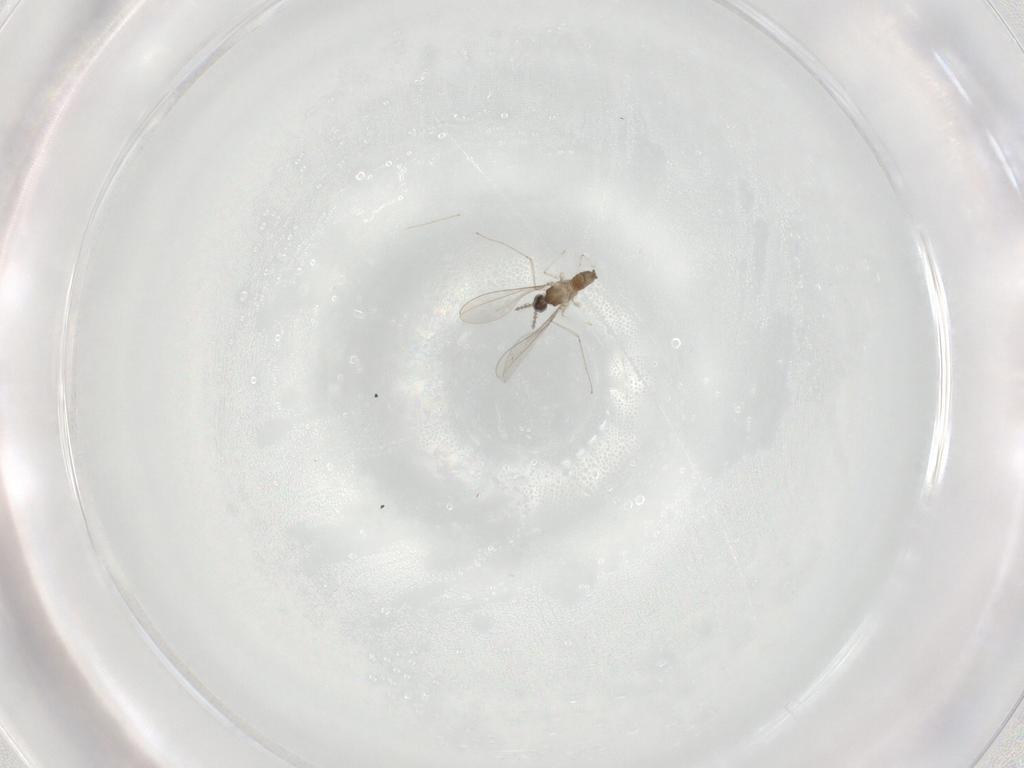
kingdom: Animalia
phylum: Arthropoda
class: Insecta
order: Diptera
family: Cecidomyiidae
